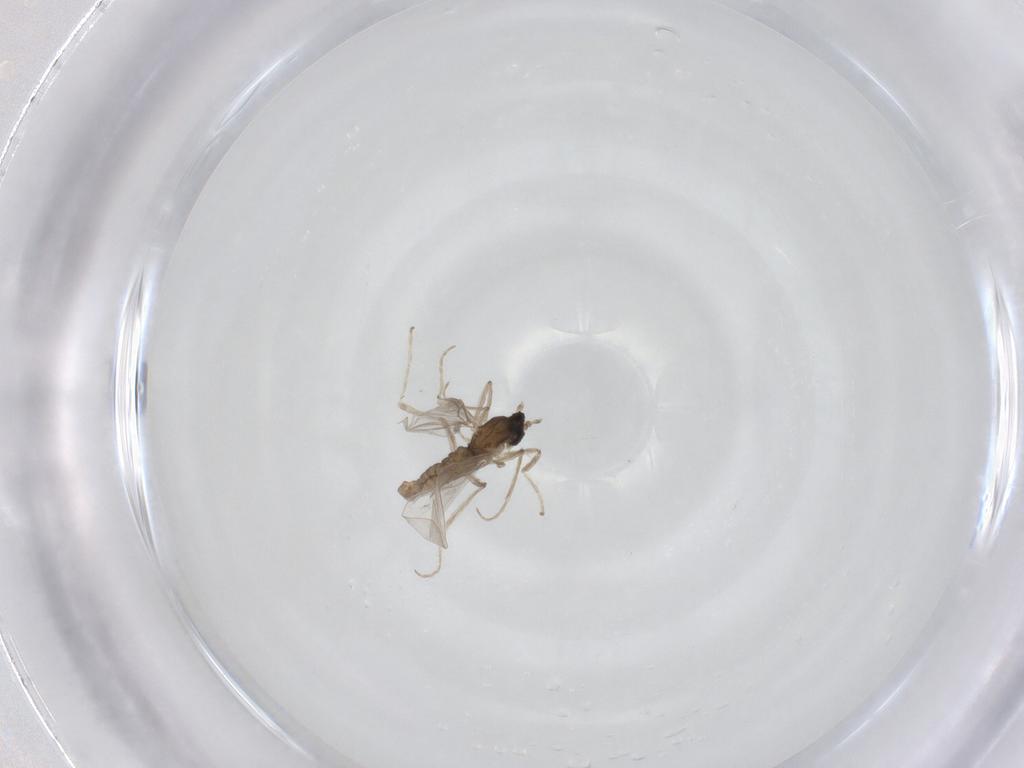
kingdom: Animalia
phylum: Arthropoda
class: Insecta
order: Diptera
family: Cecidomyiidae
